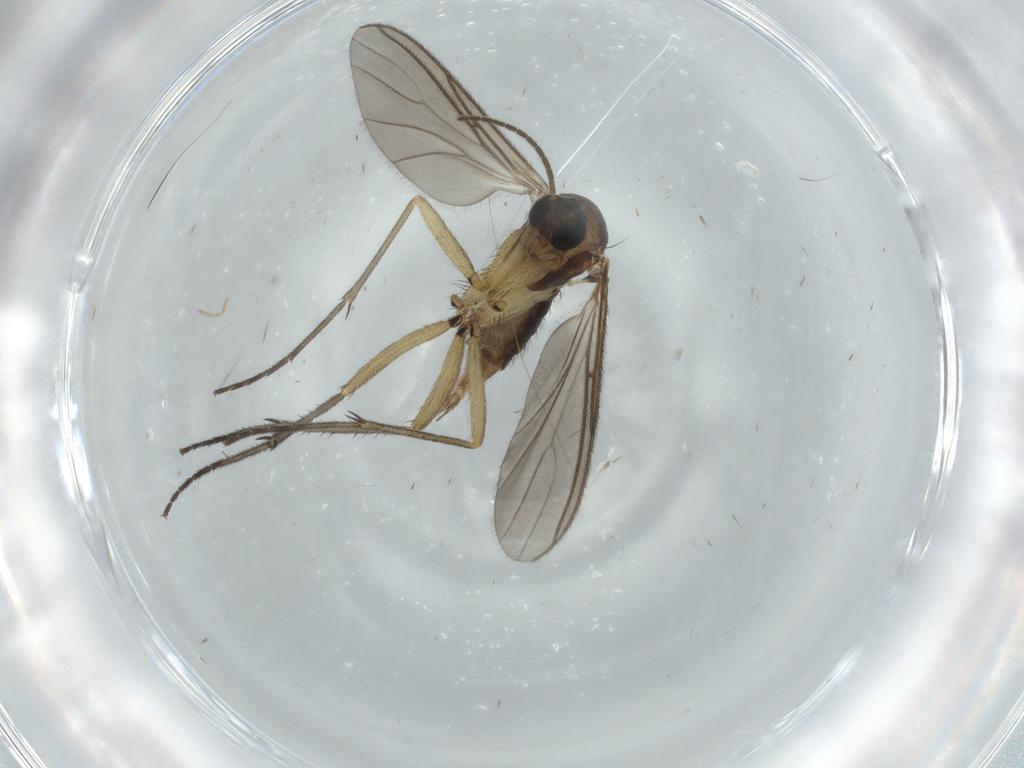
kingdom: Animalia
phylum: Arthropoda
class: Insecta
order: Diptera
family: Sciaridae
